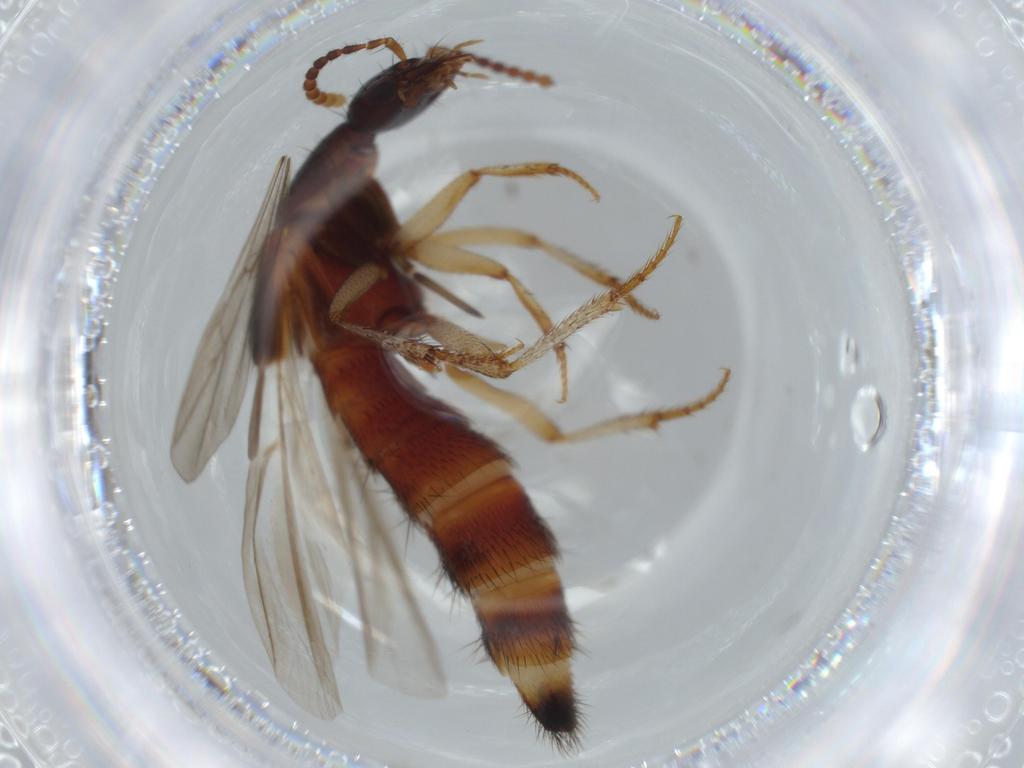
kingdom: Animalia
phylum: Arthropoda
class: Insecta
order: Coleoptera
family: Staphylinidae
